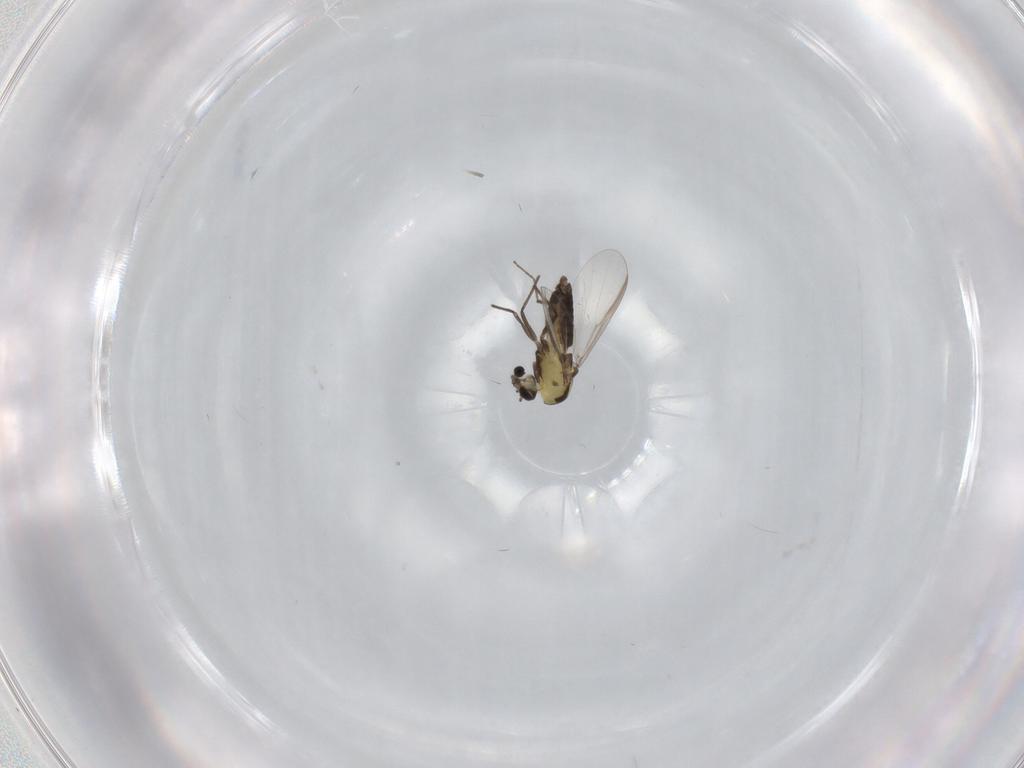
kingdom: Animalia
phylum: Arthropoda
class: Insecta
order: Diptera
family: Chironomidae
